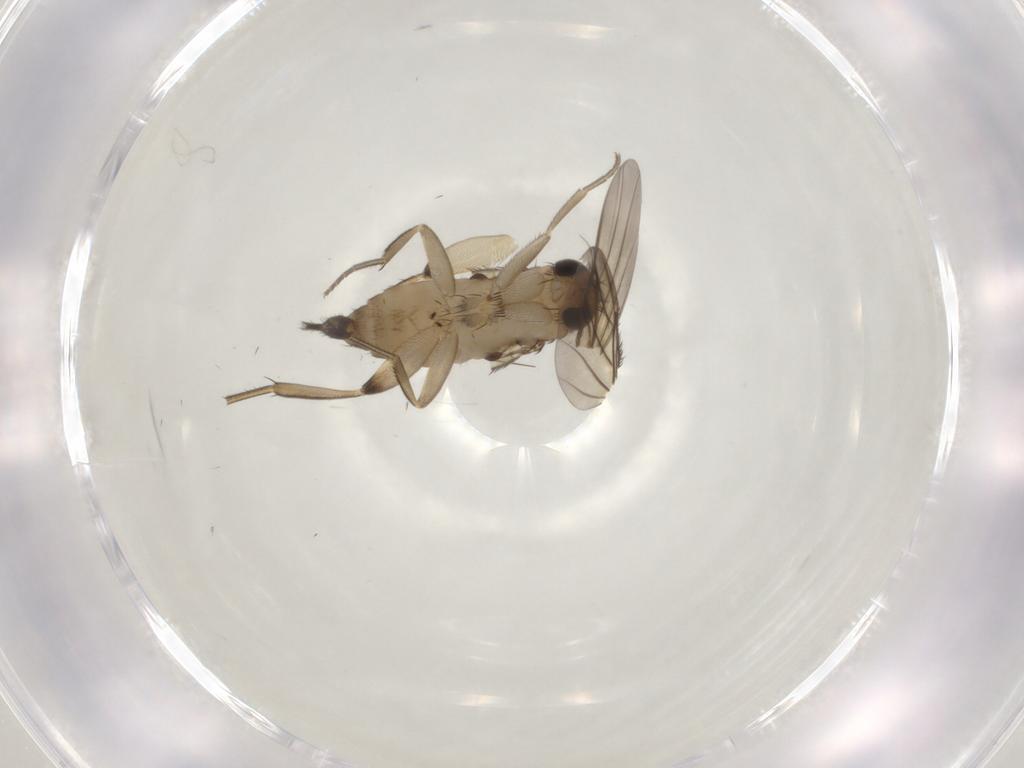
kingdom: Animalia
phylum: Arthropoda
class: Insecta
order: Diptera
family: Phoridae
